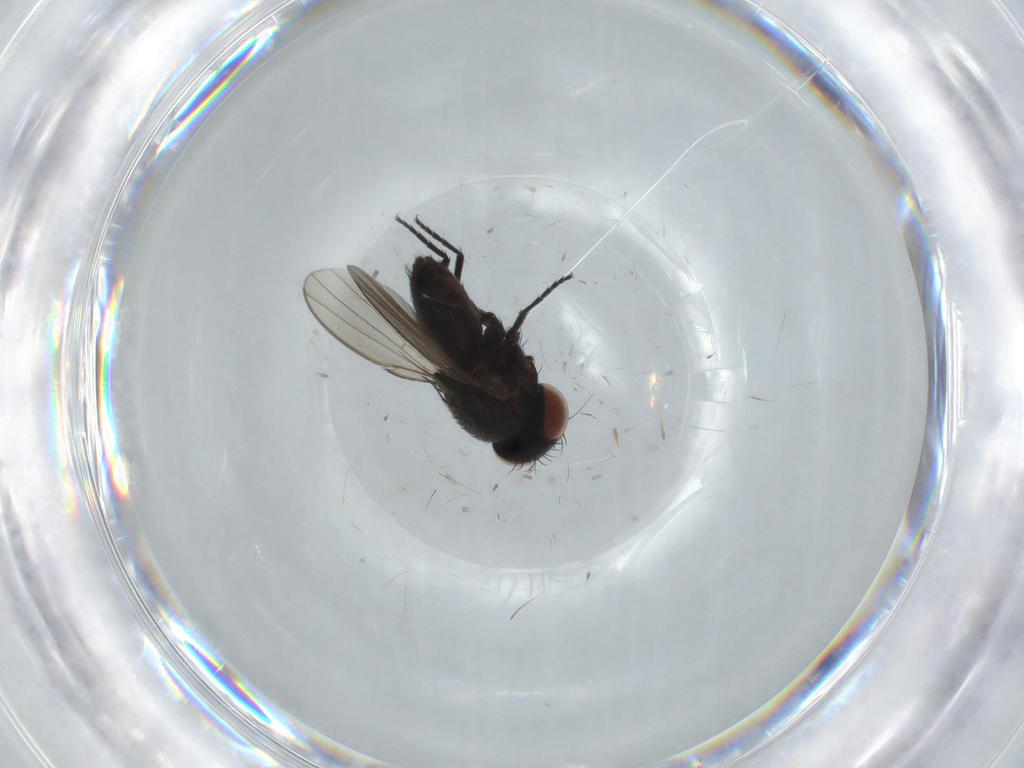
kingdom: Animalia
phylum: Arthropoda
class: Insecta
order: Diptera
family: Milichiidae
